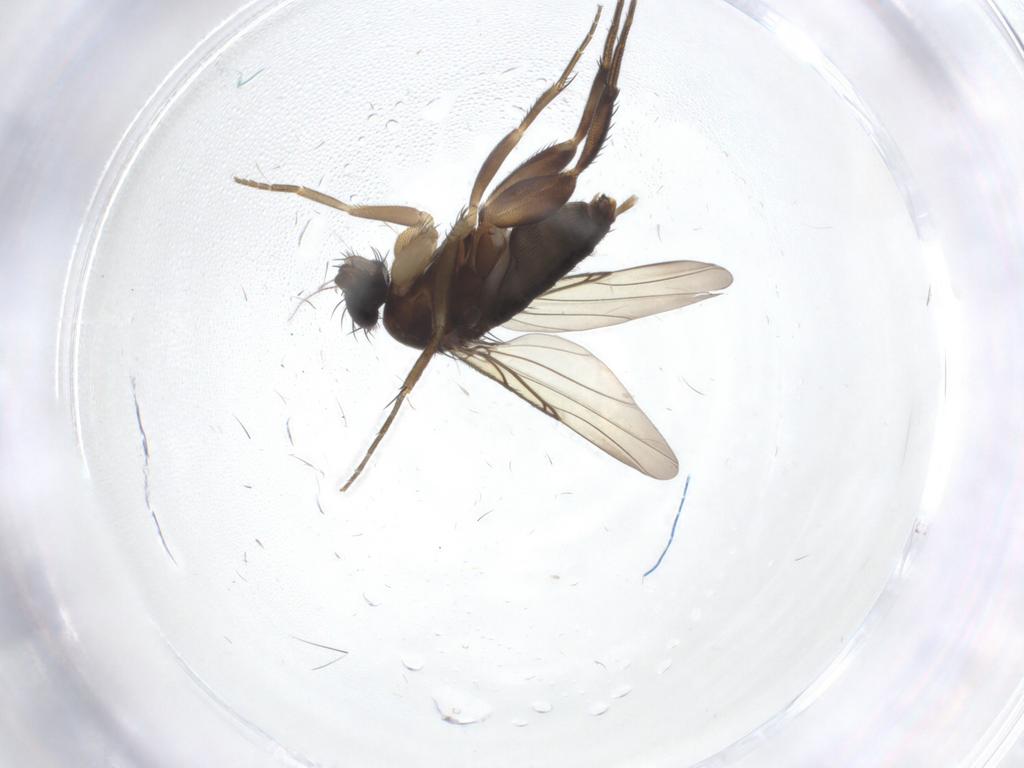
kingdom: Animalia
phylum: Arthropoda
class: Insecta
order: Diptera
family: Phoridae
